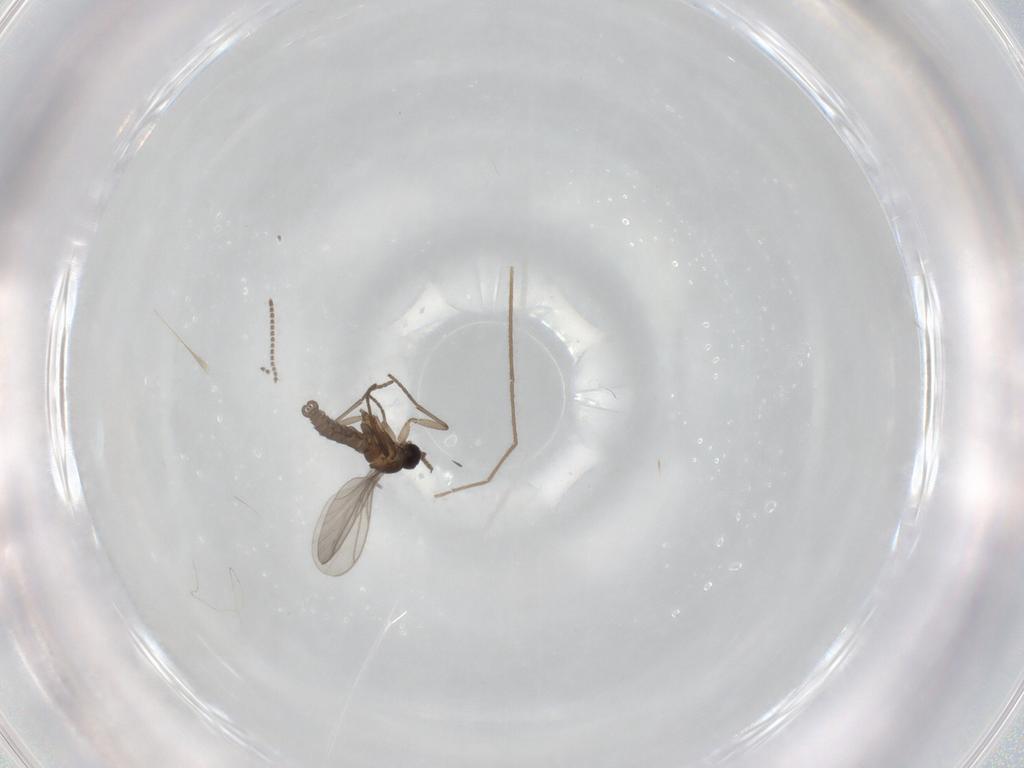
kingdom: Animalia
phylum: Arthropoda
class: Insecta
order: Diptera
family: Chironomidae
